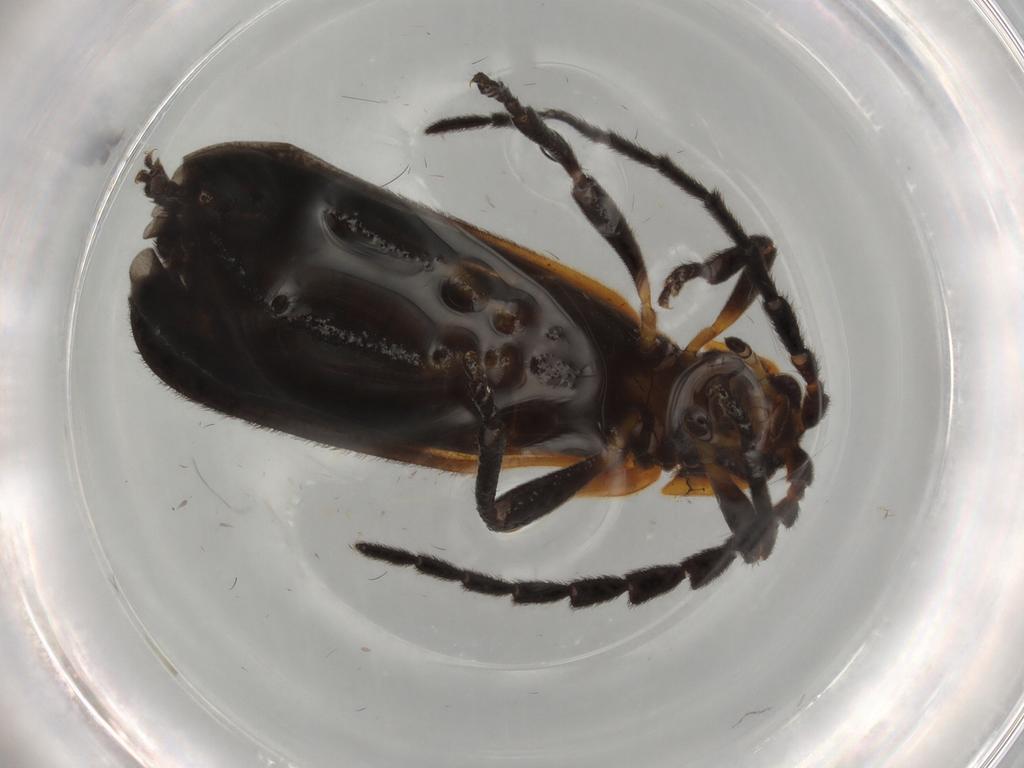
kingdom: Animalia
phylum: Arthropoda
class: Insecta
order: Coleoptera
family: Lycidae
